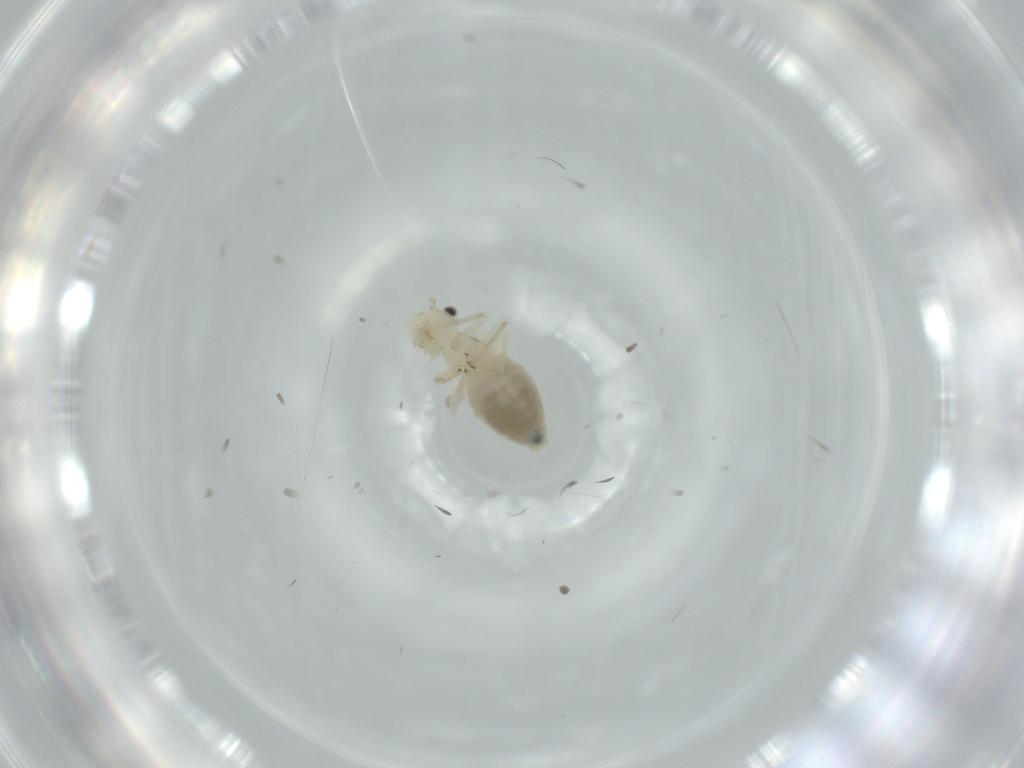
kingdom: Animalia
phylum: Arthropoda
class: Insecta
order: Psocodea
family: Caeciliusidae
